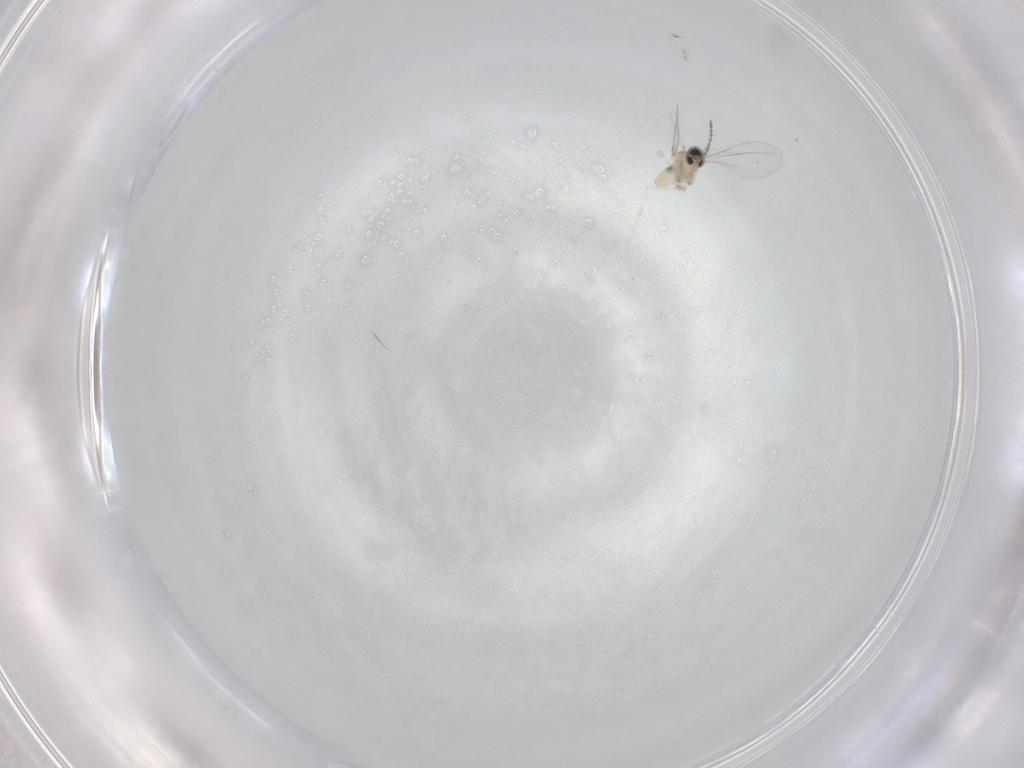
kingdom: Animalia
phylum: Arthropoda
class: Insecta
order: Diptera
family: Cecidomyiidae
